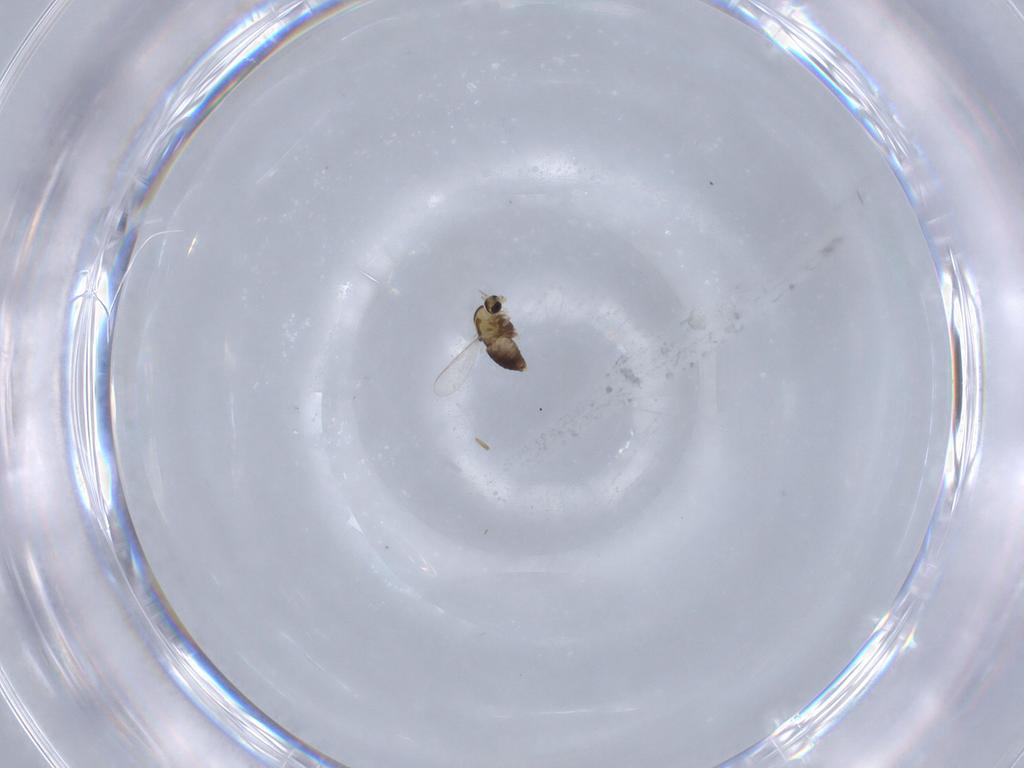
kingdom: Animalia
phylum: Arthropoda
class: Insecta
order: Diptera
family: Chironomidae
